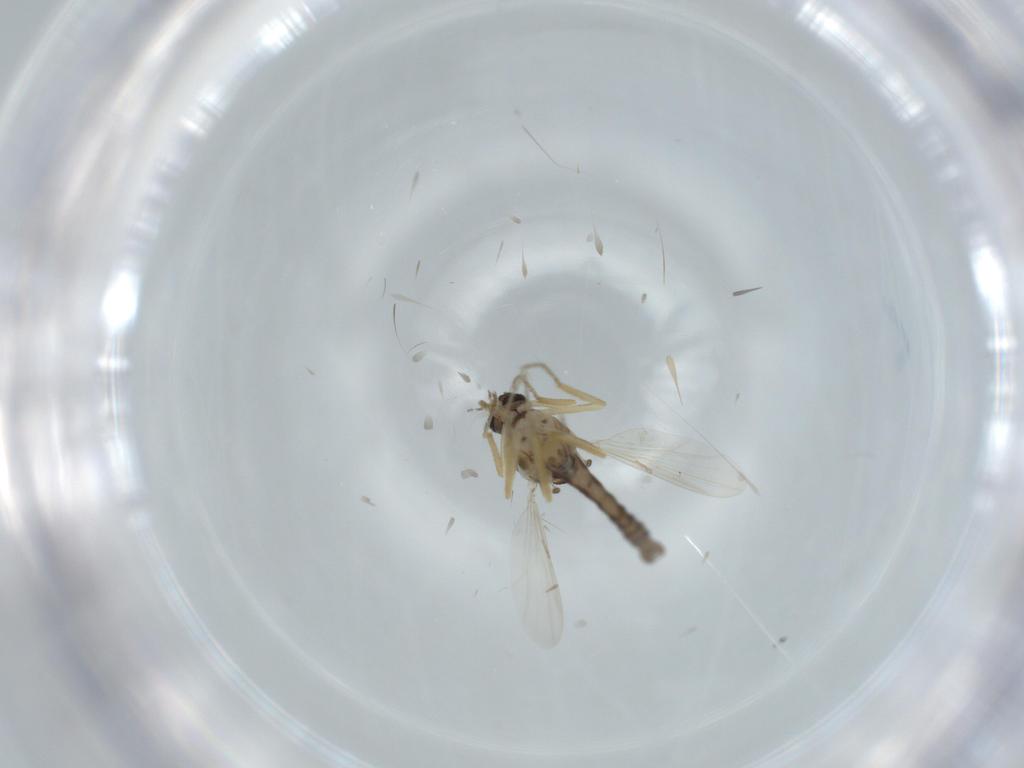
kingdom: Animalia
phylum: Arthropoda
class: Insecta
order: Diptera
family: Ceratopogonidae
